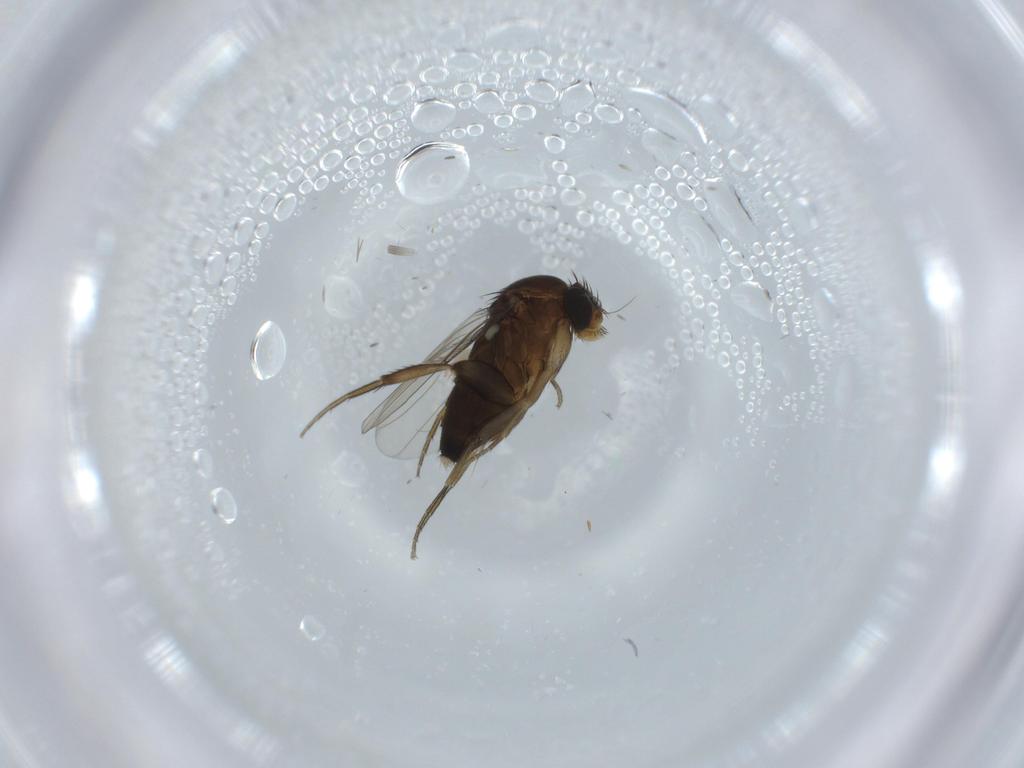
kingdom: Animalia
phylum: Arthropoda
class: Insecta
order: Diptera
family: Phoridae
